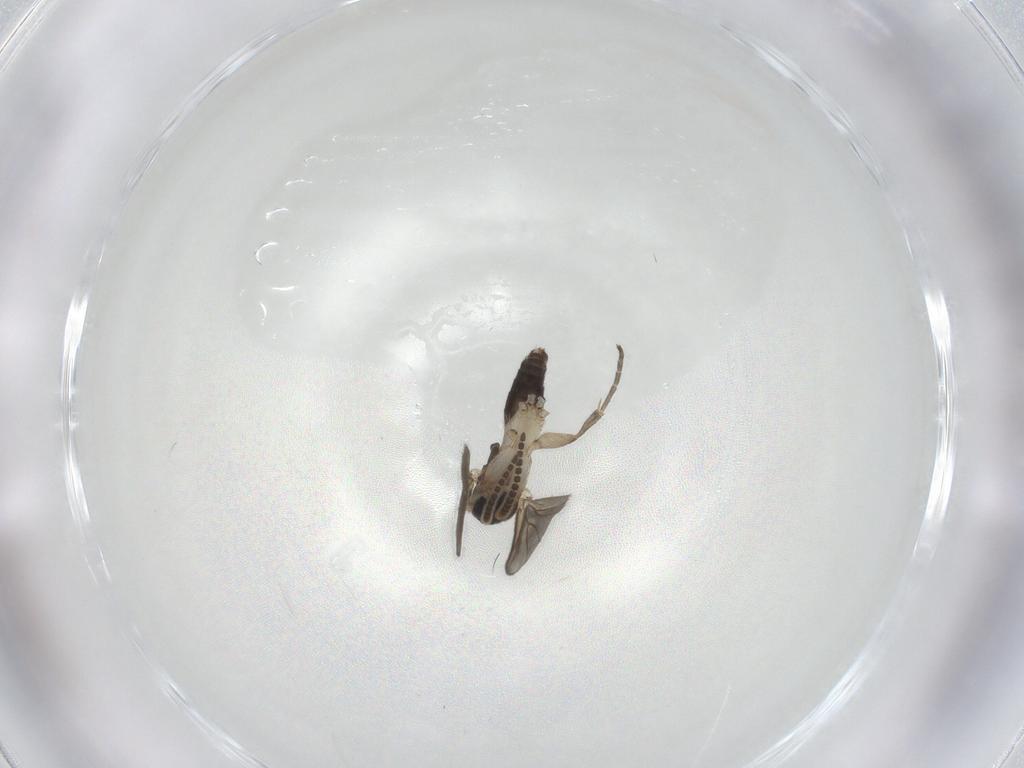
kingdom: Animalia
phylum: Arthropoda
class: Insecta
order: Diptera
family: Mycetophilidae
